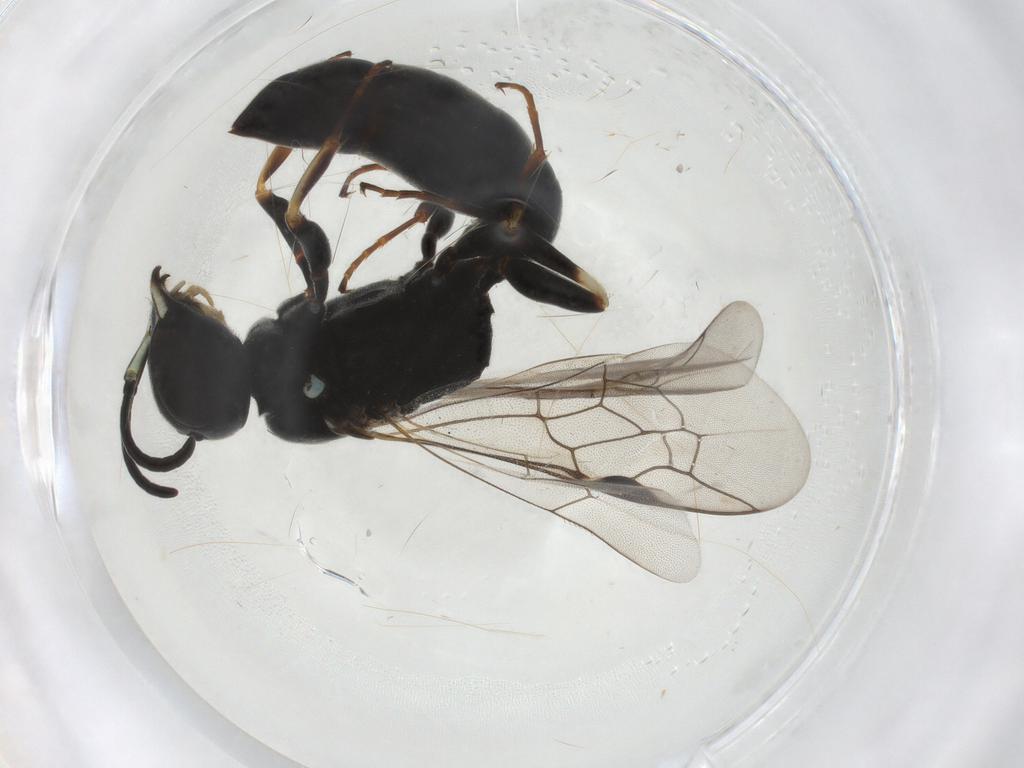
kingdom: Animalia
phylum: Arthropoda
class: Insecta
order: Hymenoptera
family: Pemphredonidae
